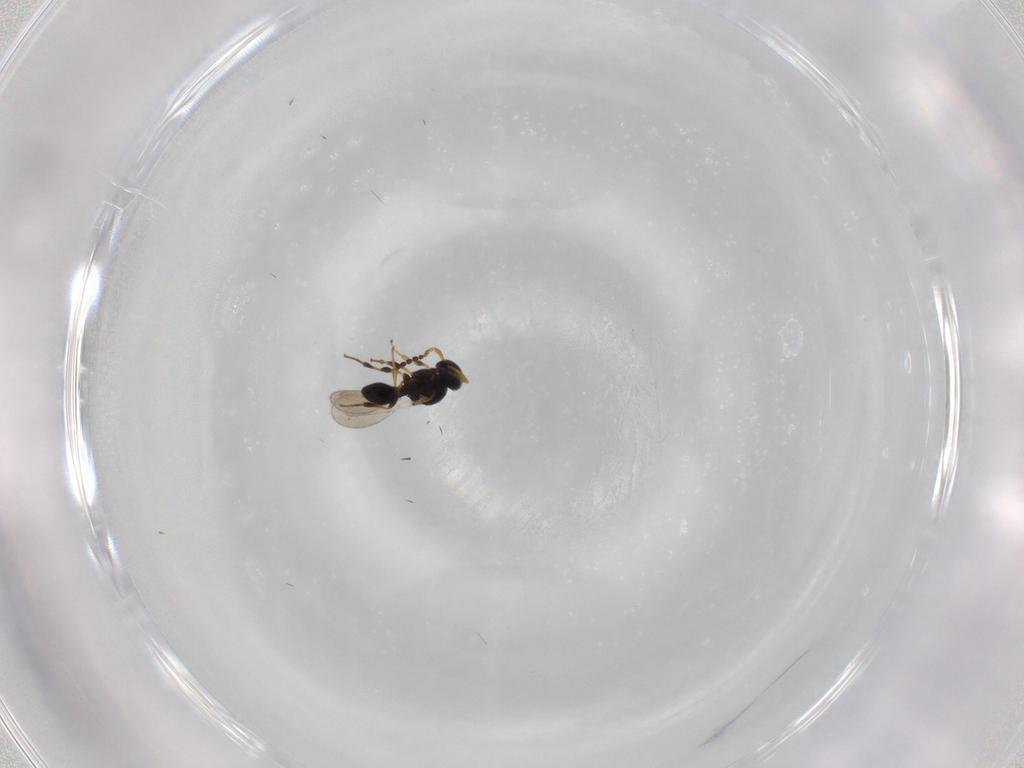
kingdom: Animalia
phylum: Arthropoda
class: Insecta
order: Hymenoptera
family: Platygastridae
